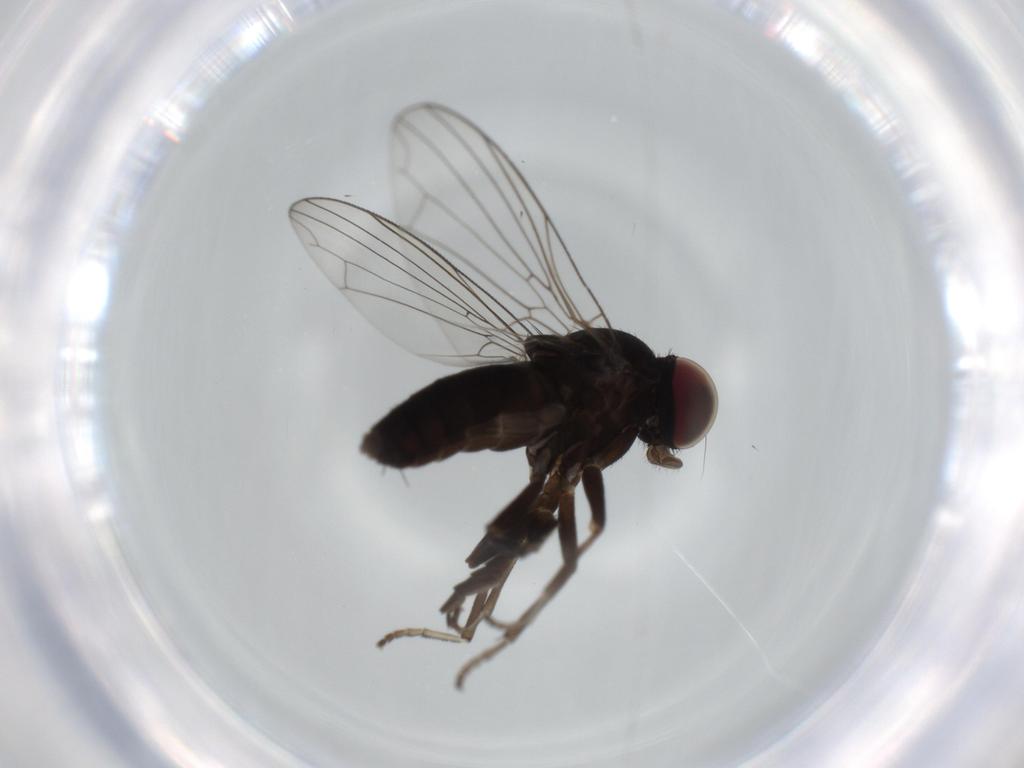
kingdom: Animalia
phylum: Arthropoda
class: Insecta
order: Diptera
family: Platypezidae
